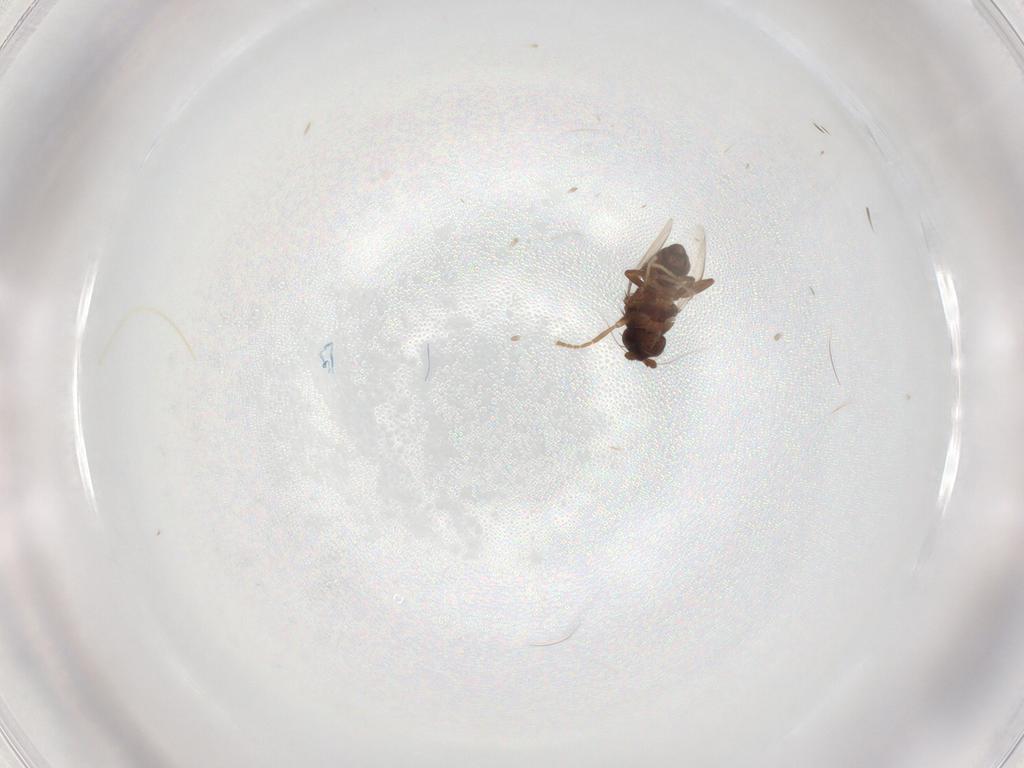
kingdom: Animalia
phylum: Arthropoda
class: Insecta
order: Diptera
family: Sphaeroceridae
